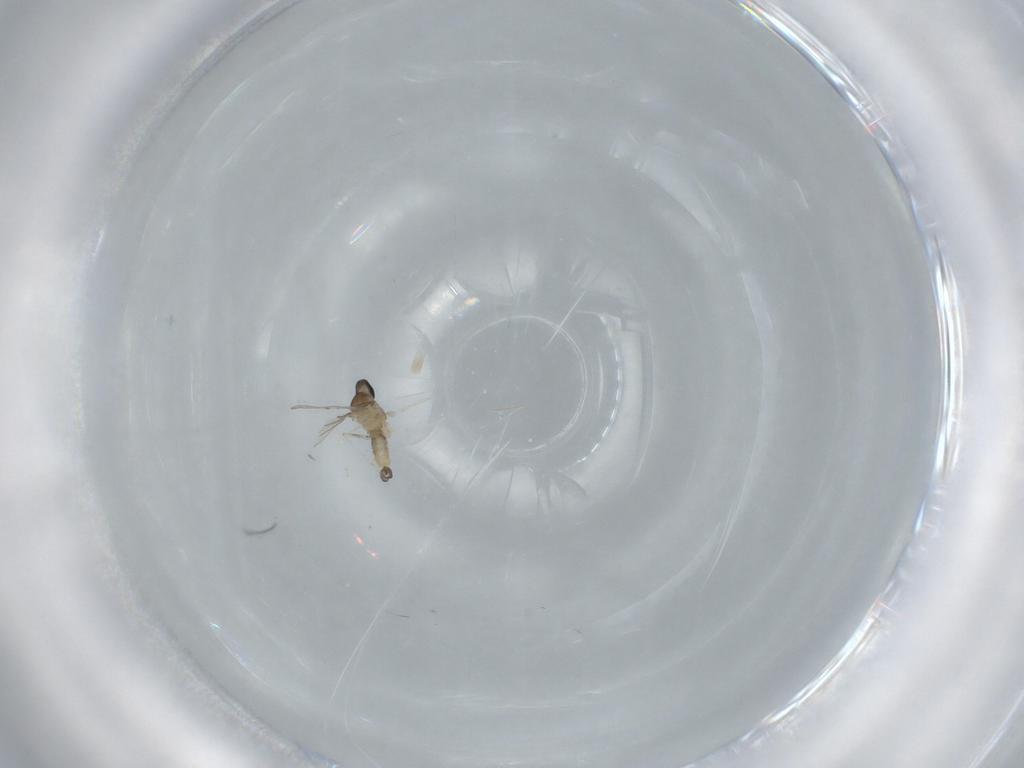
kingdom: Animalia
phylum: Arthropoda
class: Insecta
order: Diptera
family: Cecidomyiidae
